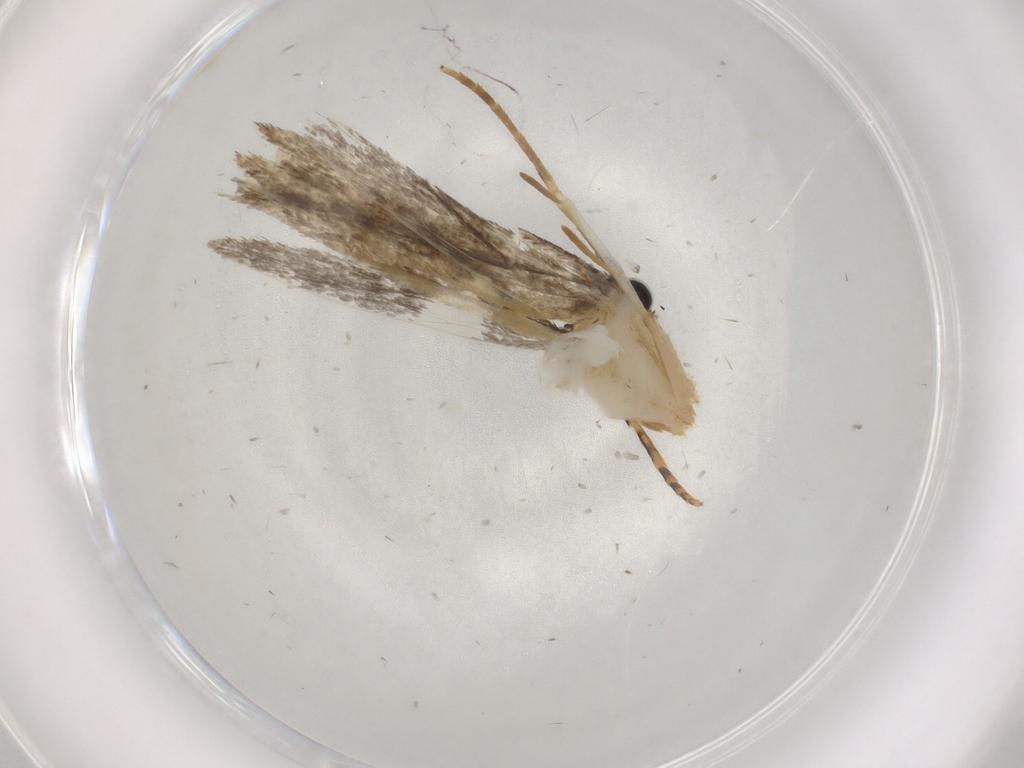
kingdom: Animalia
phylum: Arthropoda
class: Insecta
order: Lepidoptera
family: Tineidae
